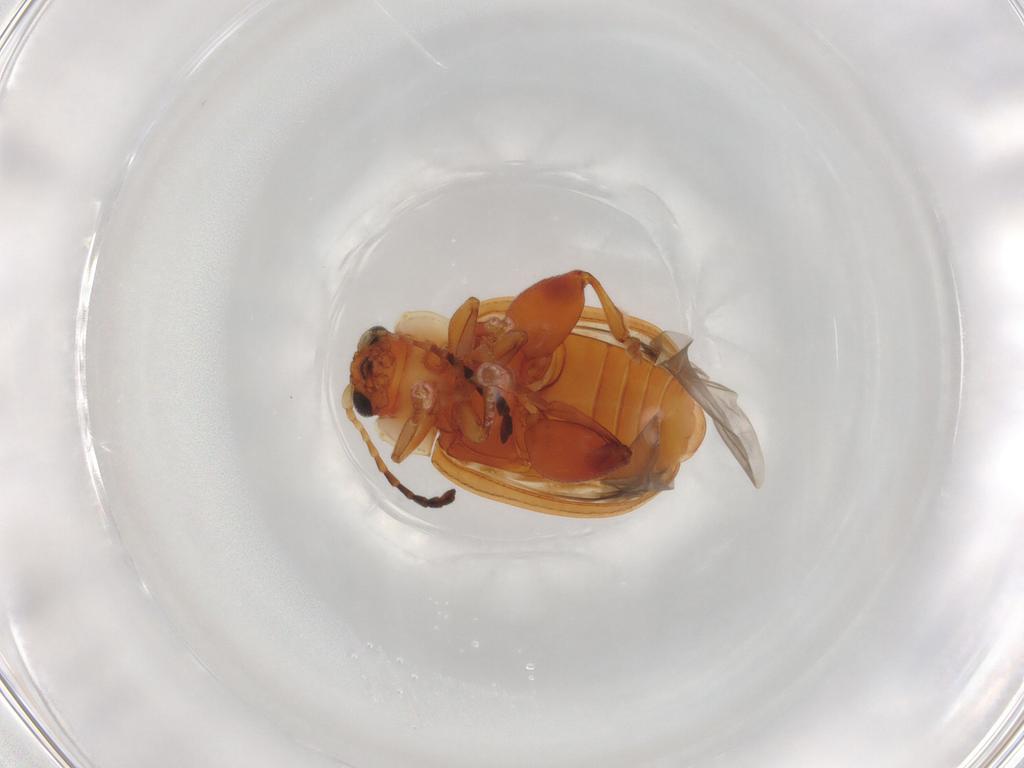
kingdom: Animalia
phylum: Arthropoda
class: Insecta
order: Coleoptera
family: Chrysomelidae
